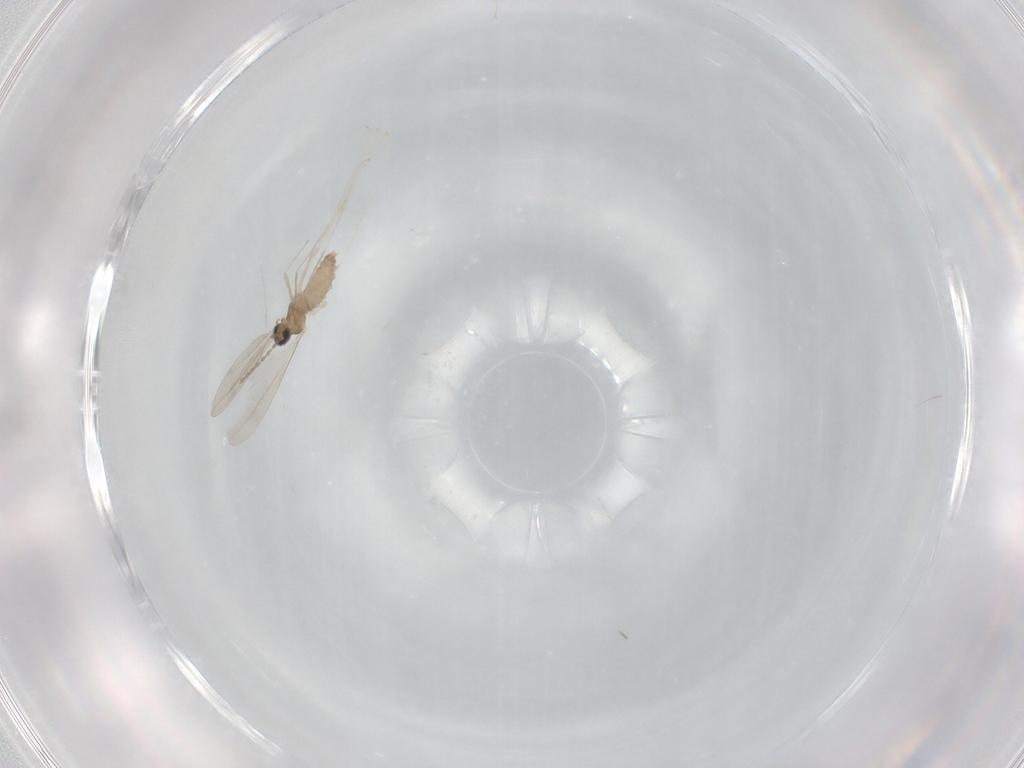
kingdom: Animalia
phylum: Arthropoda
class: Insecta
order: Diptera
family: Cecidomyiidae
